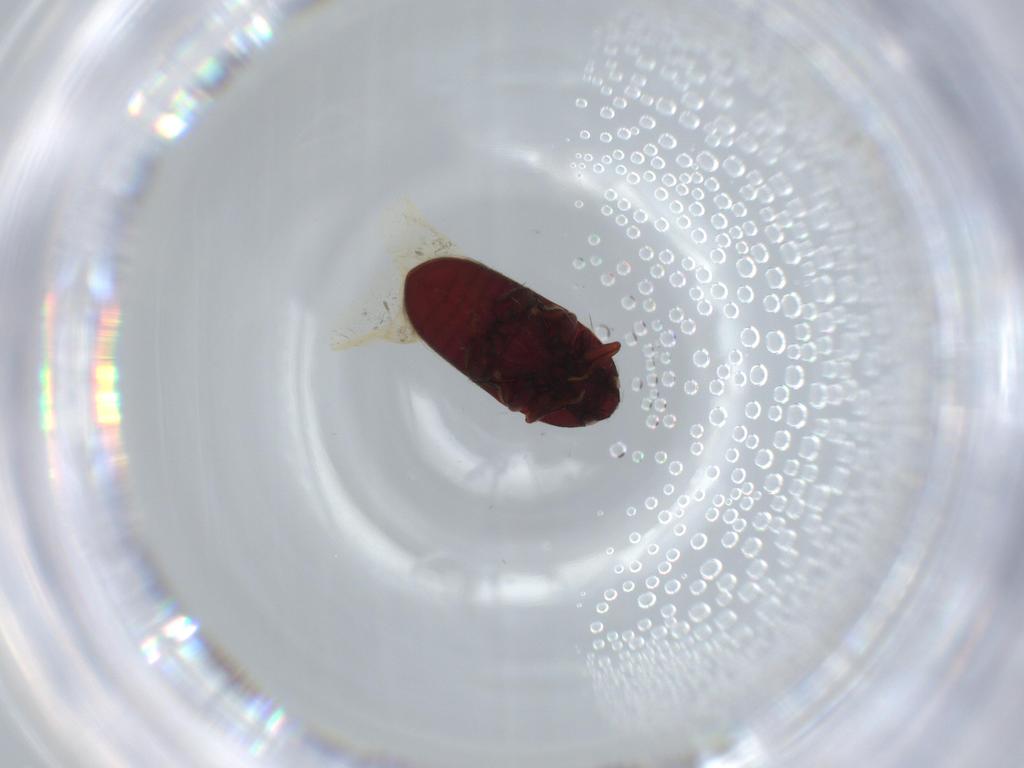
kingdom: Animalia
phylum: Arthropoda
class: Insecta
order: Coleoptera
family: Throscidae
